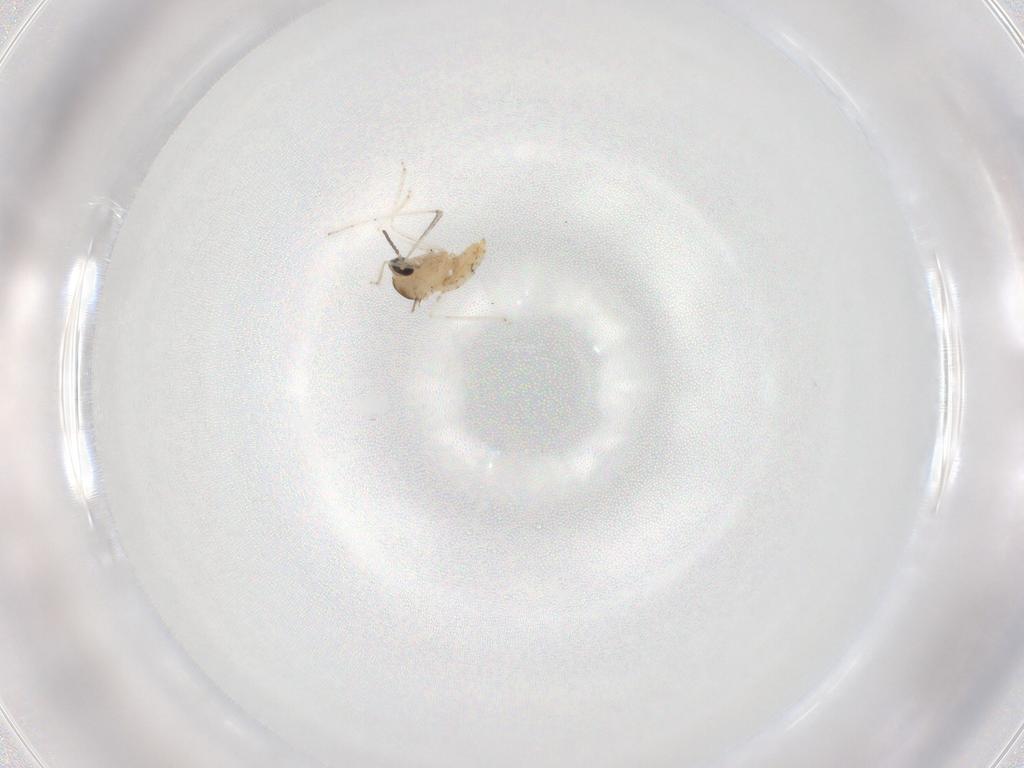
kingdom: Animalia
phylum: Arthropoda
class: Insecta
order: Diptera
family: Cecidomyiidae
